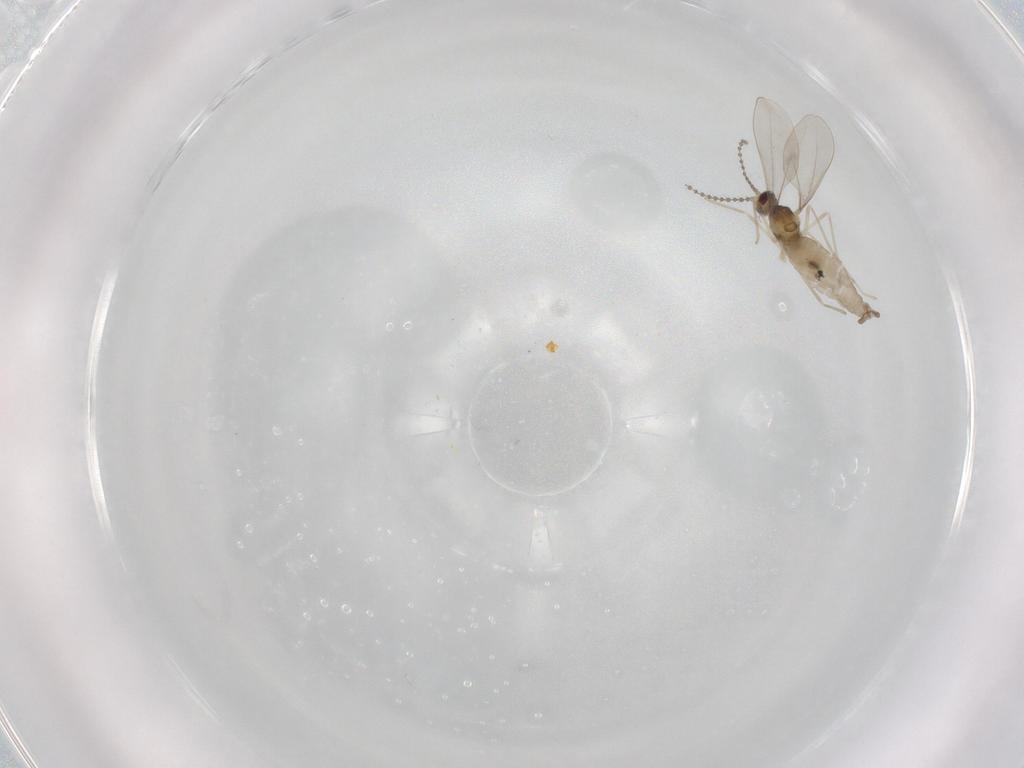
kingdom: Animalia
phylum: Arthropoda
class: Insecta
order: Diptera
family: Cecidomyiidae
